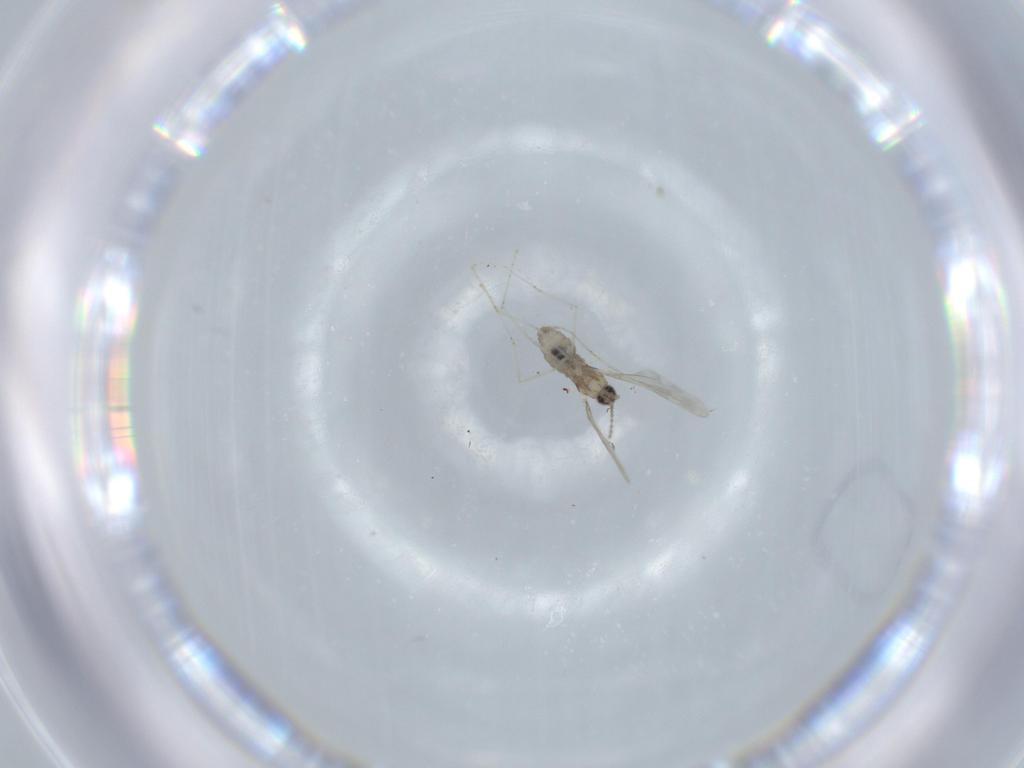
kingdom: Animalia
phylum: Arthropoda
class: Insecta
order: Diptera
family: Cecidomyiidae
